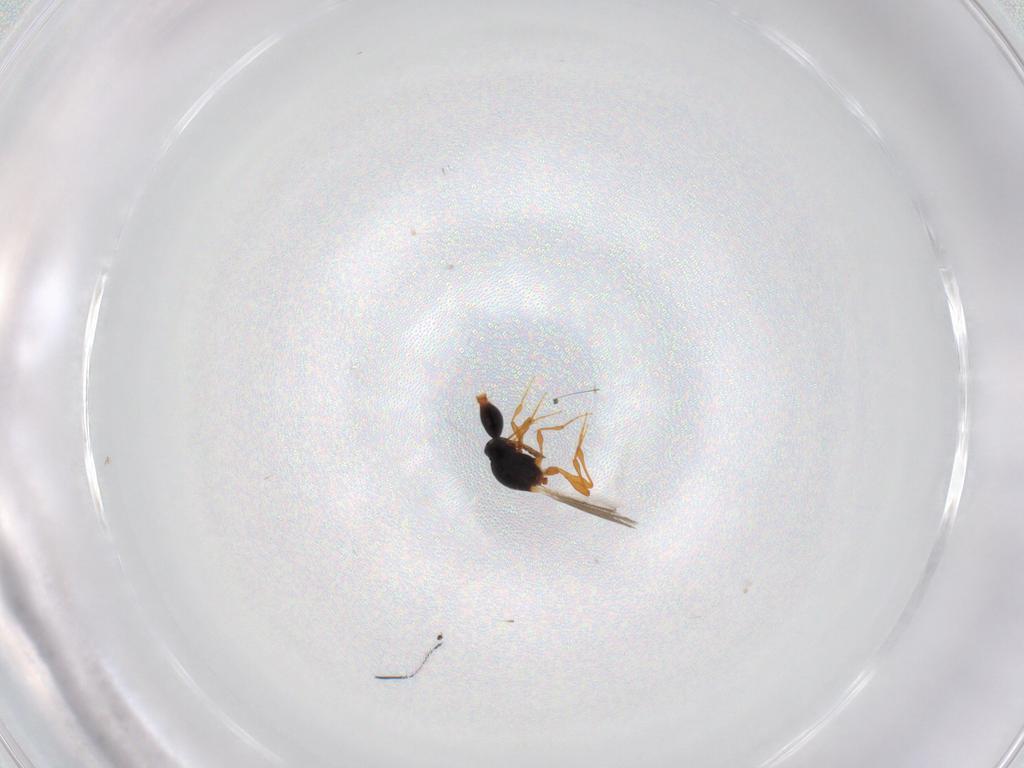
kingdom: Animalia
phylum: Arthropoda
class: Insecta
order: Hymenoptera
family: Platygastridae
